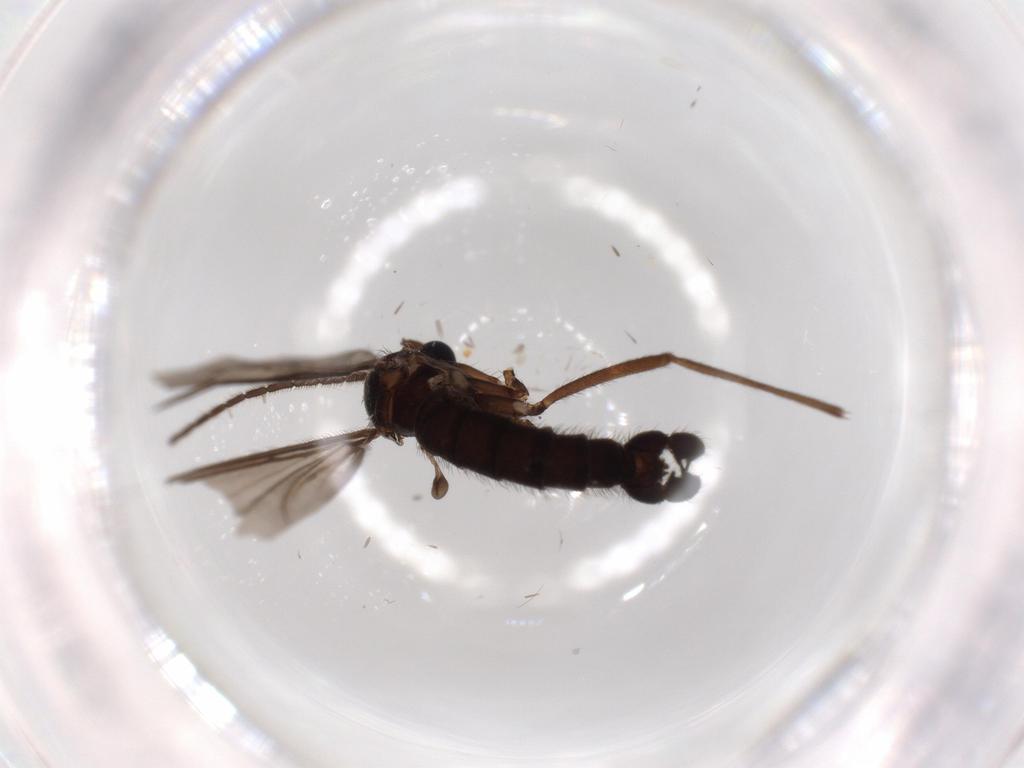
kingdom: Animalia
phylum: Arthropoda
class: Insecta
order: Diptera
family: Sciaridae
